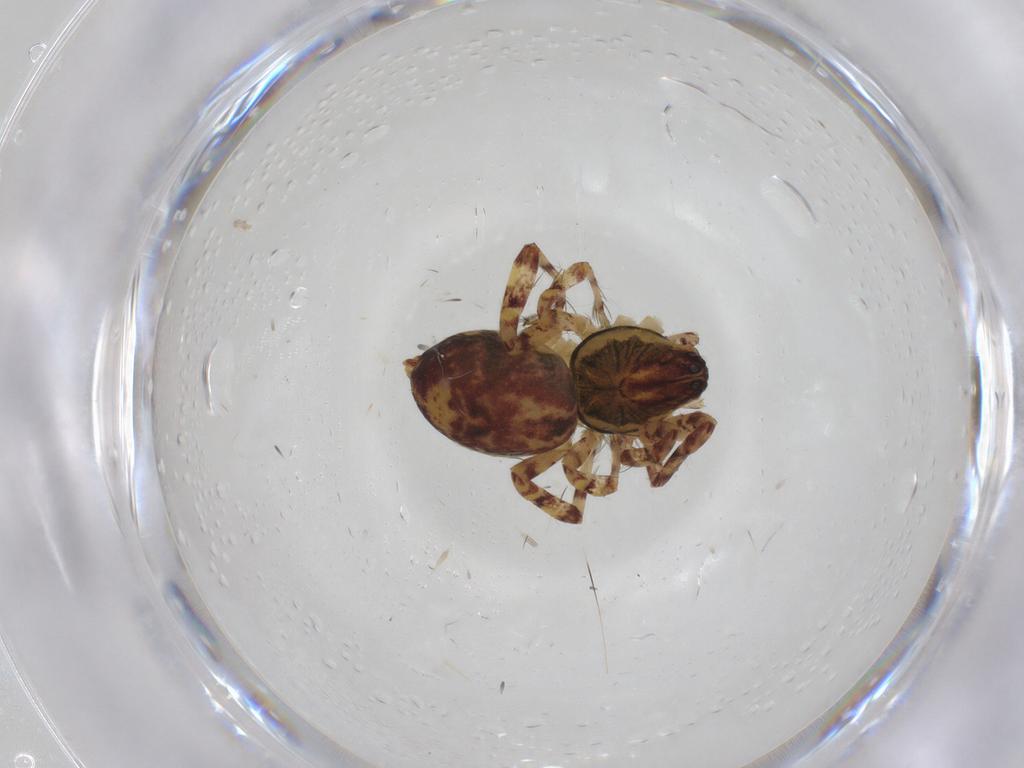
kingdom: Animalia
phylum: Arthropoda
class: Arachnida
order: Araneae
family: Anyphaenidae
